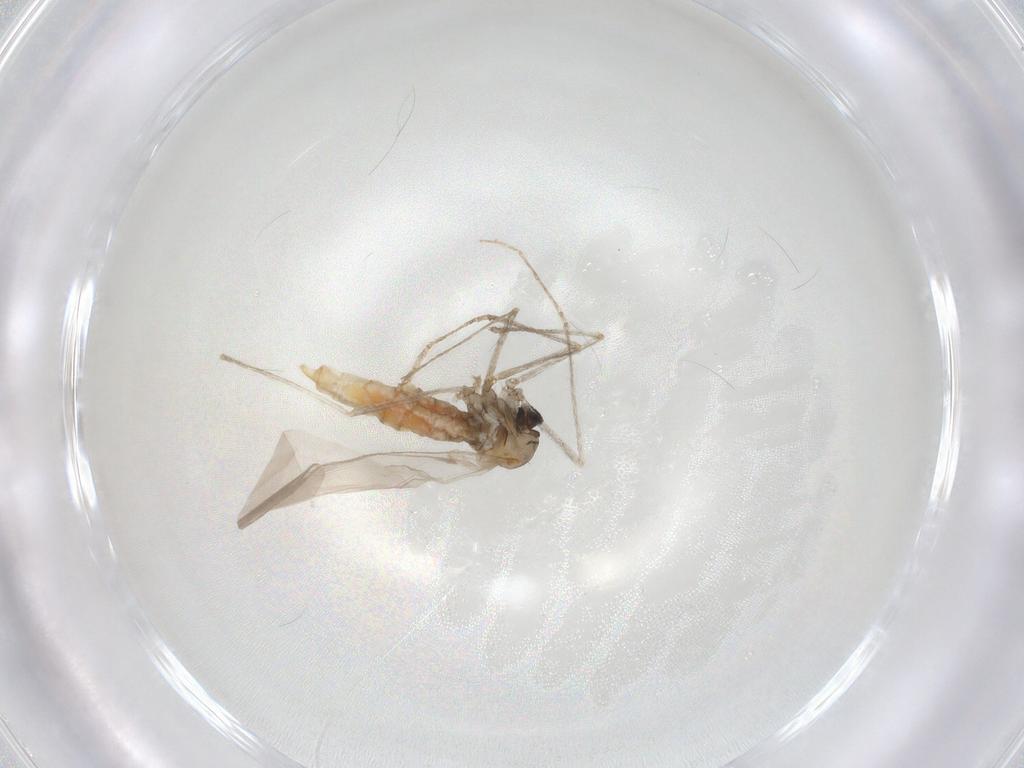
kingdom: Animalia
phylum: Arthropoda
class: Insecta
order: Diptera
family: Cecidomyiidae
